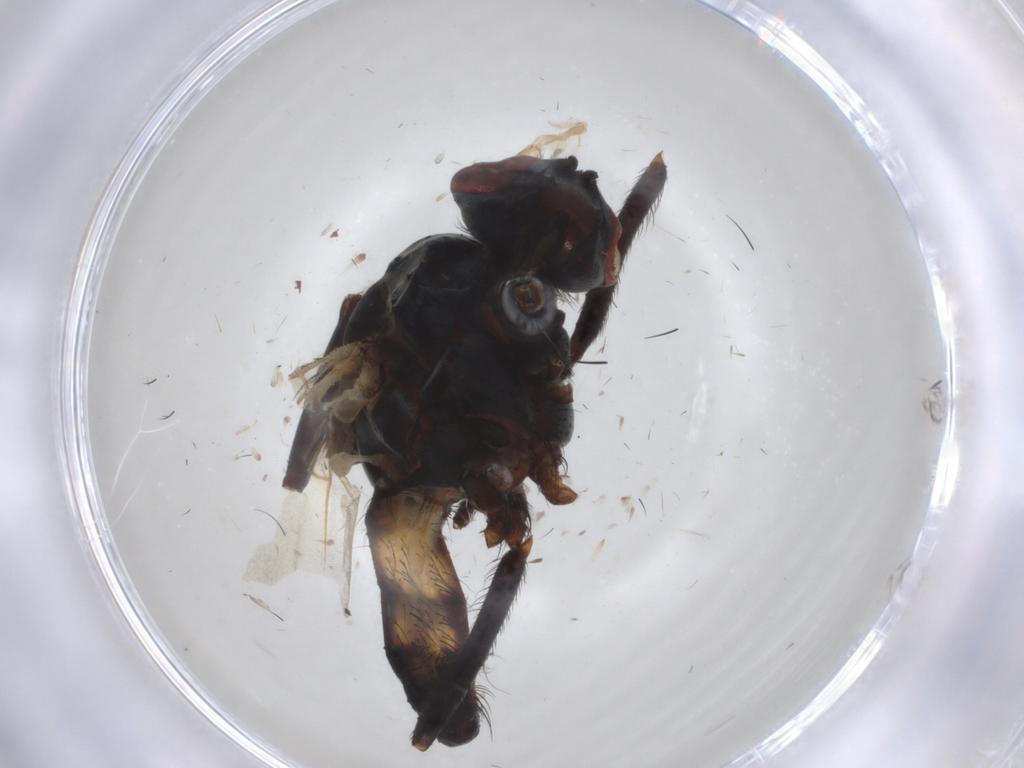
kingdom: Animalia
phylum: Arthropoda
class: Insecta
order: Diptera
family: Anthomyiidae
